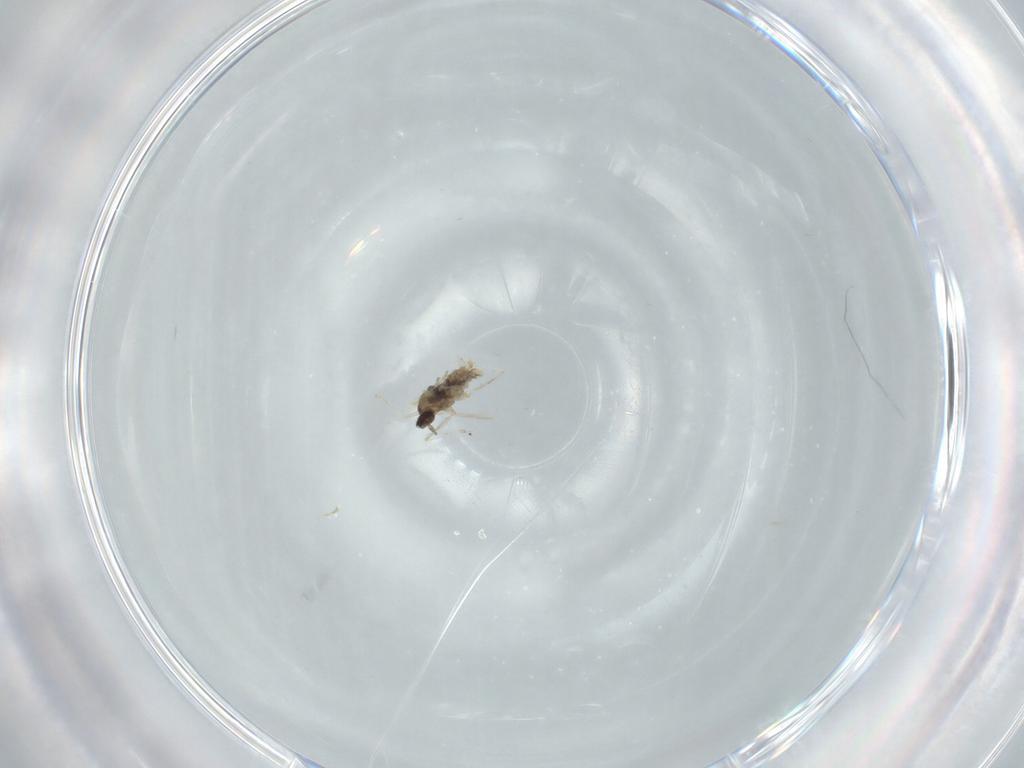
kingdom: Animalia
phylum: Arthropoda
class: Insecta
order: Diptera
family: Cecidomyiidae
